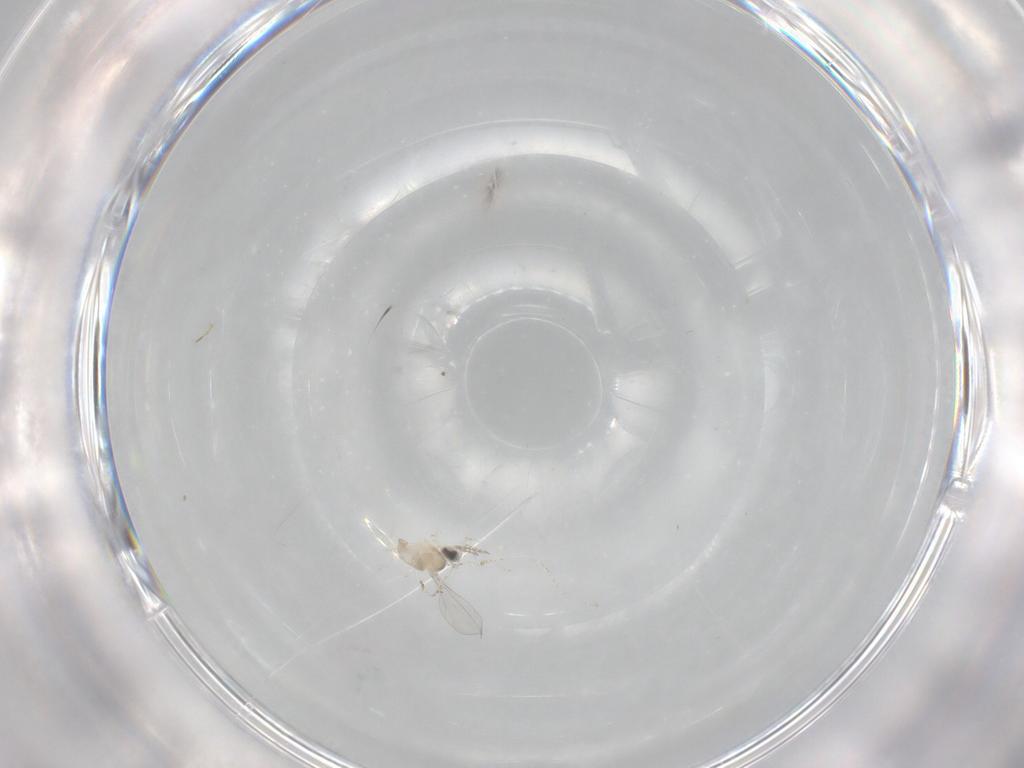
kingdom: Animalia
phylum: Arthropoda
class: Insecta
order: Diptera
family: Chironomidae
